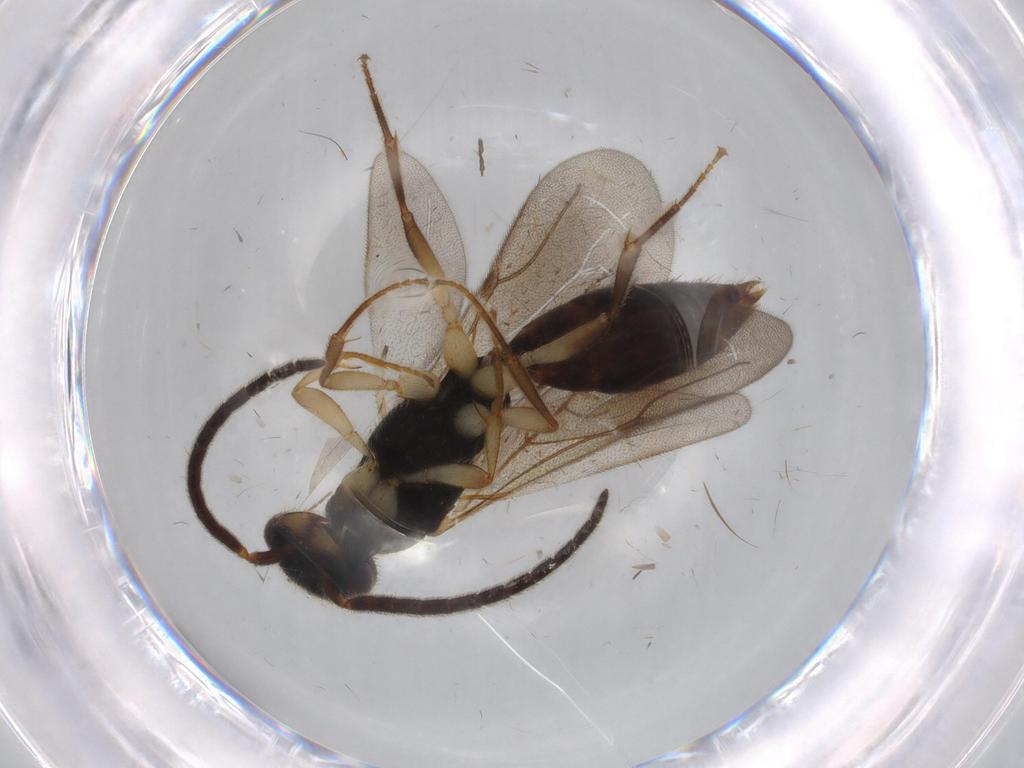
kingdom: Animalia
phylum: Arthropoda
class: Insecta
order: Hymenoptera
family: Bethylidae
